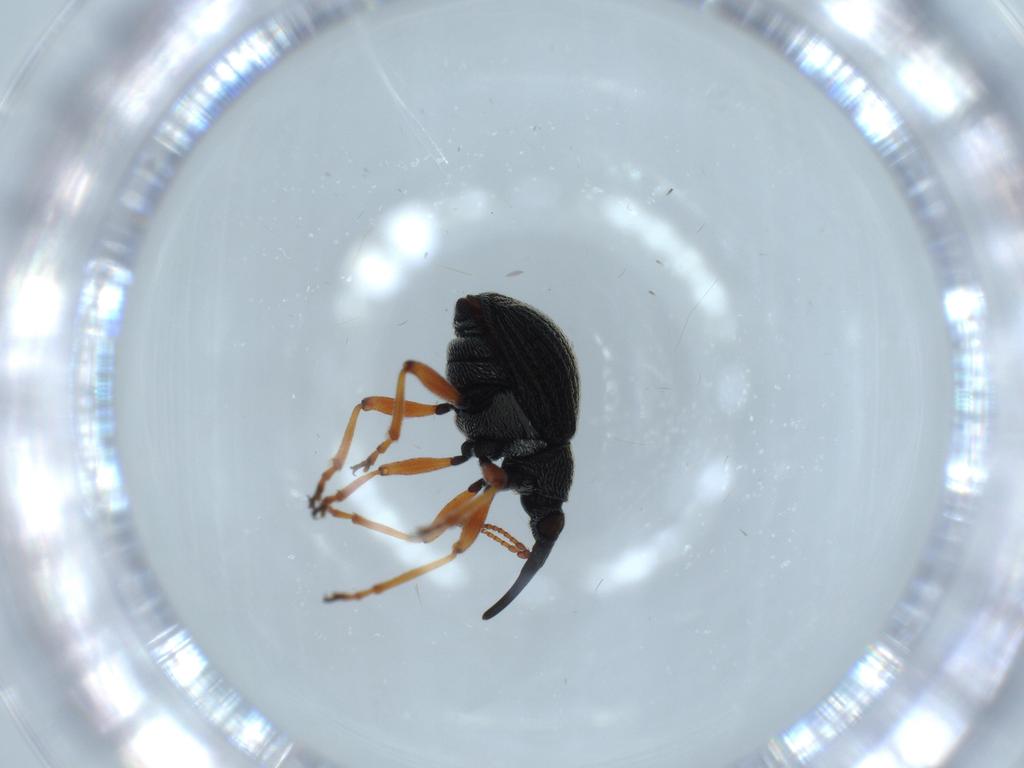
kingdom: Animalia
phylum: Arthropoda
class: Insecta
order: Coleoptera
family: Brentidae
